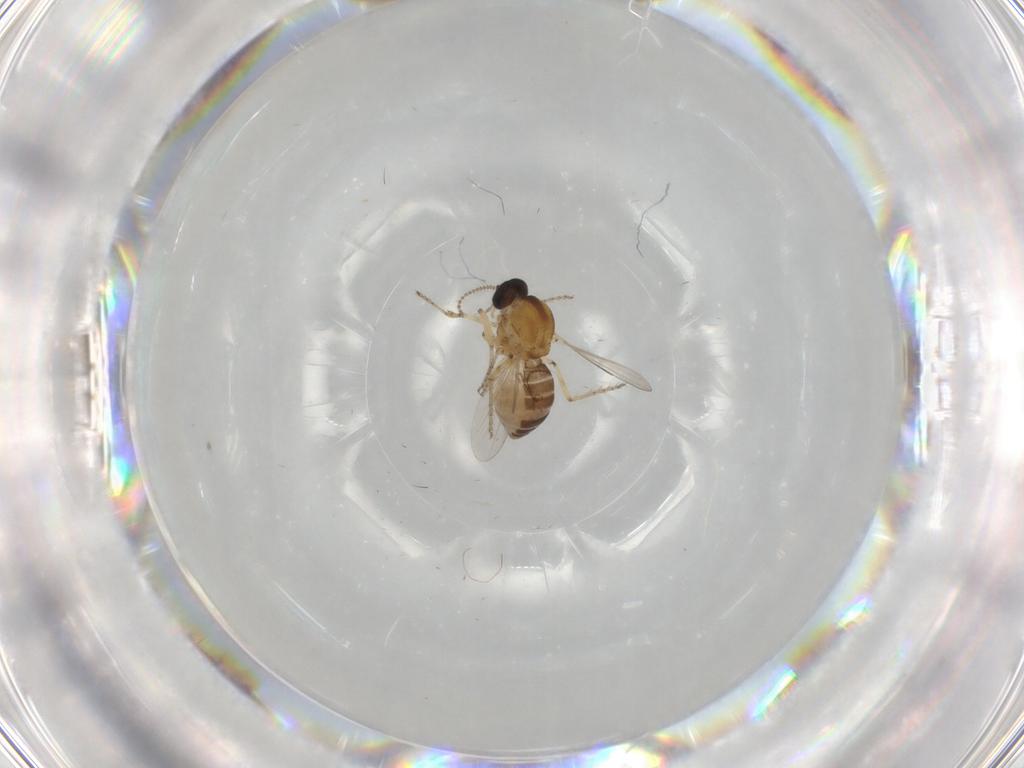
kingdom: Animalia
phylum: Arthropoda
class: Insecta
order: Diptera
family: Ceratopogonidae
